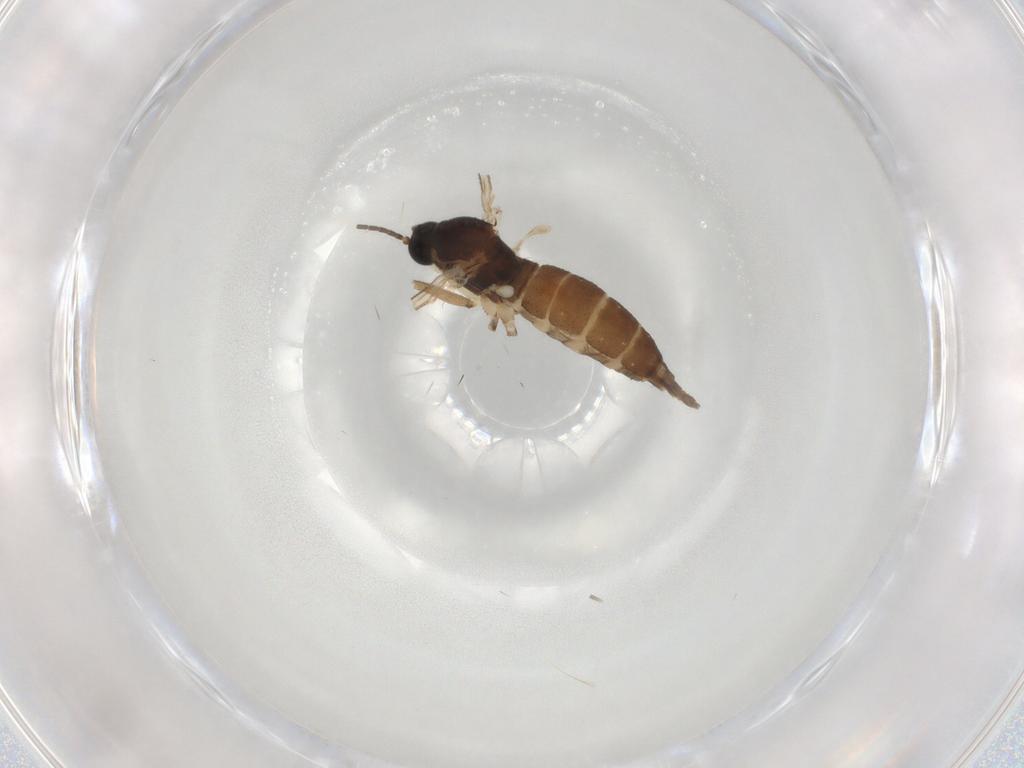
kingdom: Animalia
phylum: Arthropoda
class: Insecta
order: Diptera
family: Sciaridae
